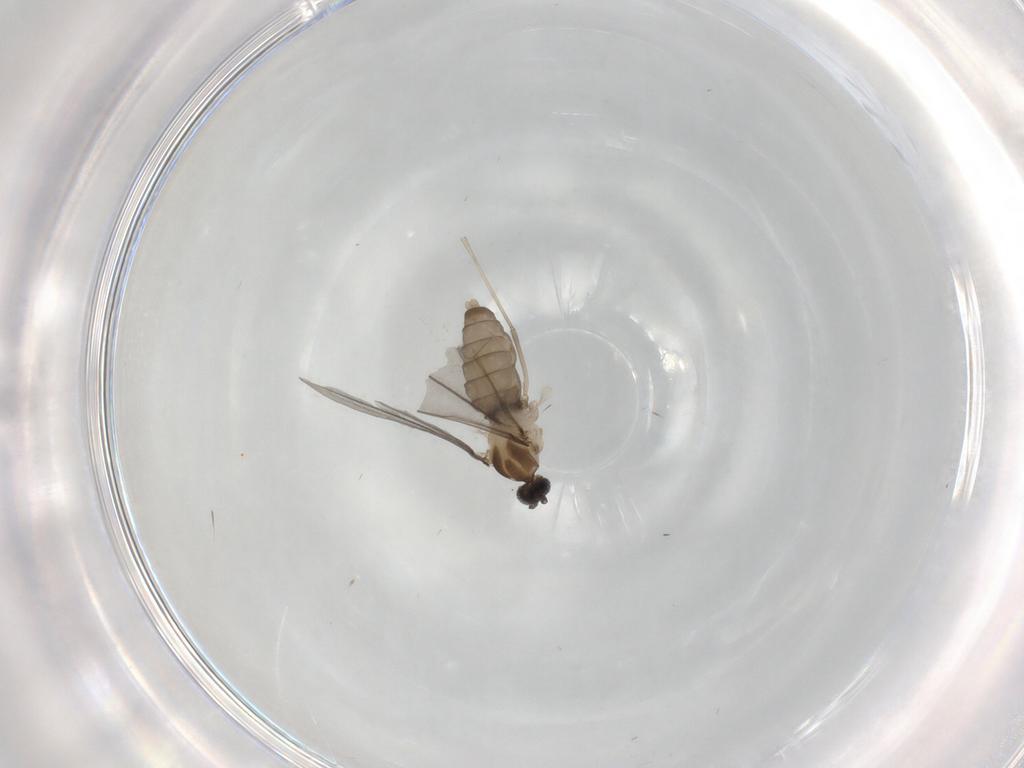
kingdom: Animalia
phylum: Arthropoda
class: Insecta
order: Diptera
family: Cecidomyiidae
